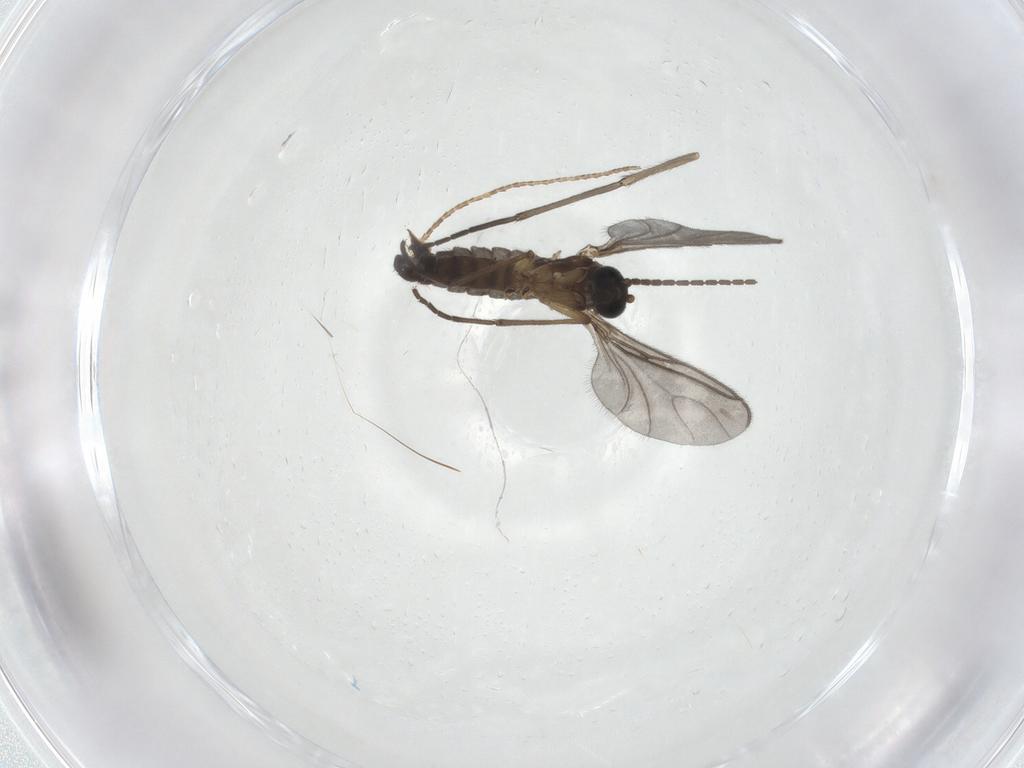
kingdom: Animalia
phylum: Arthropoda
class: Insecta
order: Diptera
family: Sciaridae
